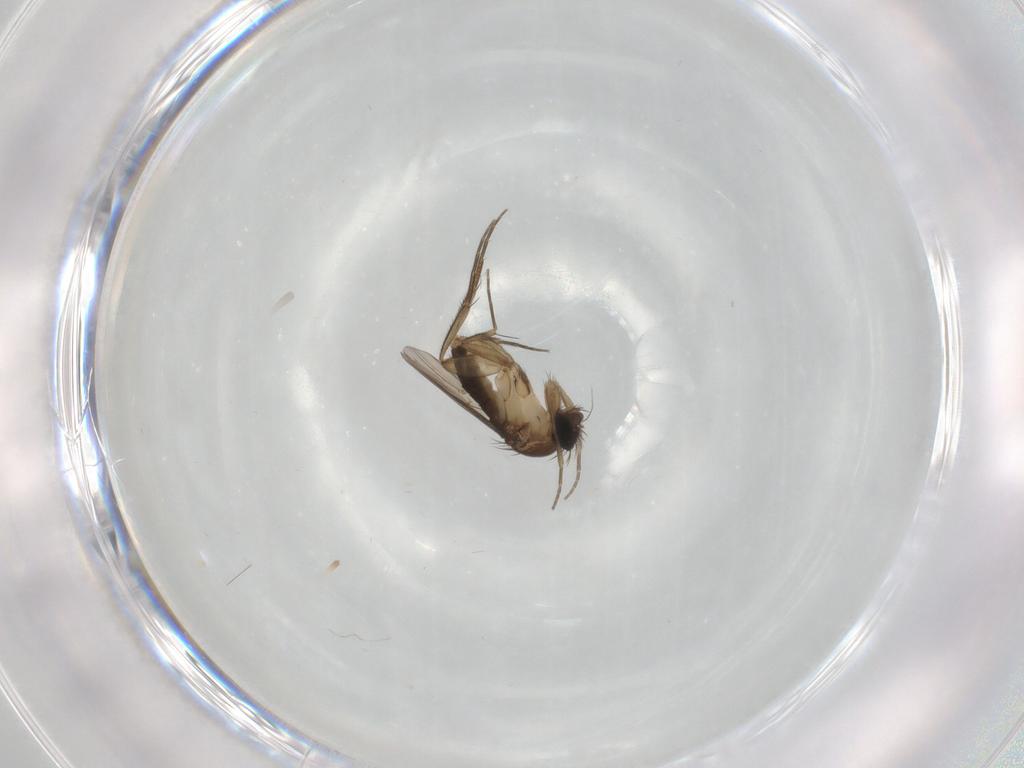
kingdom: Animalia
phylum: Arthropoda
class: Insecta
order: Diptera
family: Phoridae
